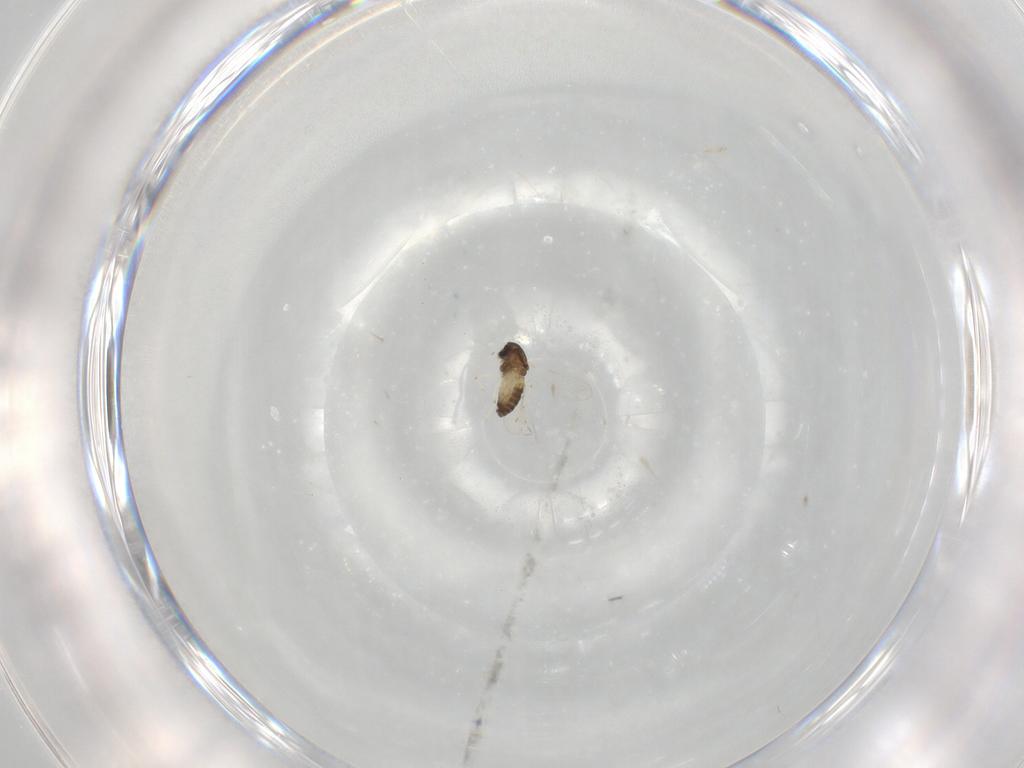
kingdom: Animalia
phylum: Arthropoda
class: Insecta
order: Diptera
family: Chironomidae
